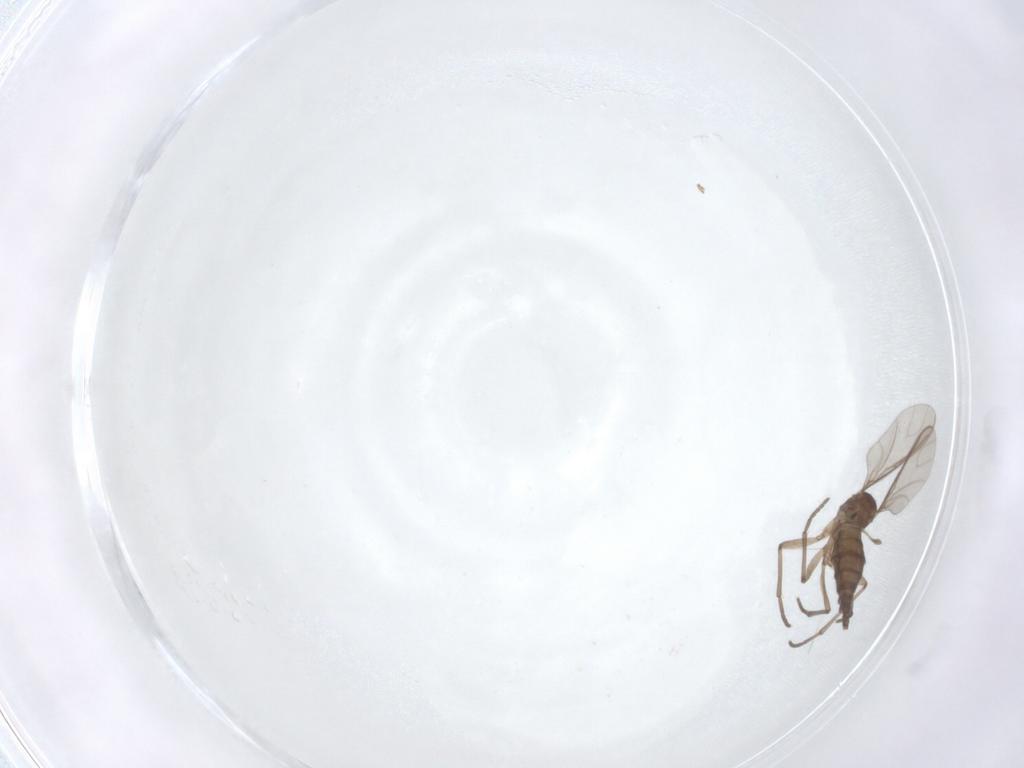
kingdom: Animalia
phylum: Arthropoda
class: Insecta
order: Diptera
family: Sciaridae
